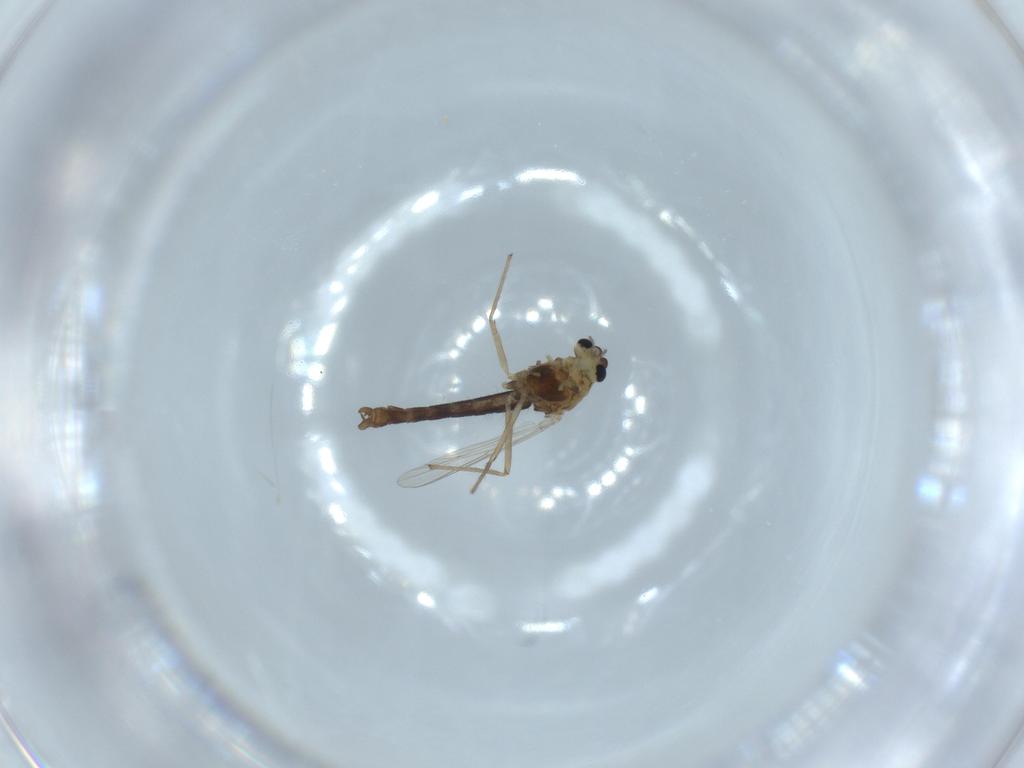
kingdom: Animalia
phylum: Arthropoda
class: Insecta
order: Diptera
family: Chironomidae
